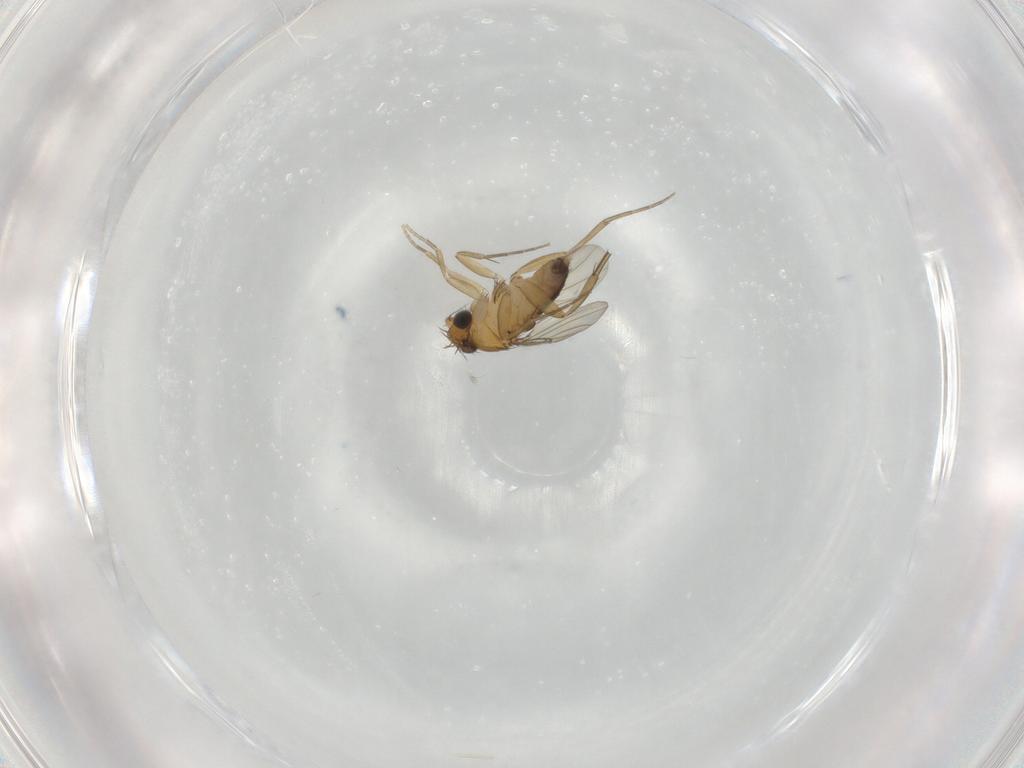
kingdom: Animalia
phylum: Arthropoda
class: Insecta
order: Diptera
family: Phoridae
